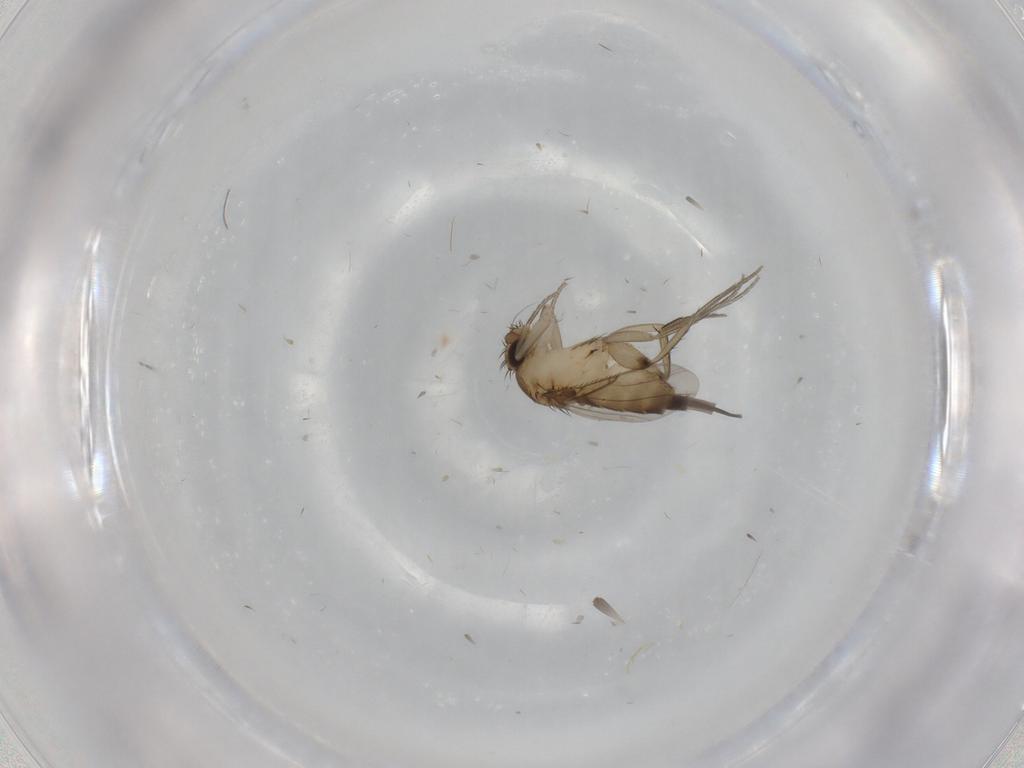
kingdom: Animalia
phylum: Arthropoda
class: Insecta
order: Diptera
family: Phoridae
